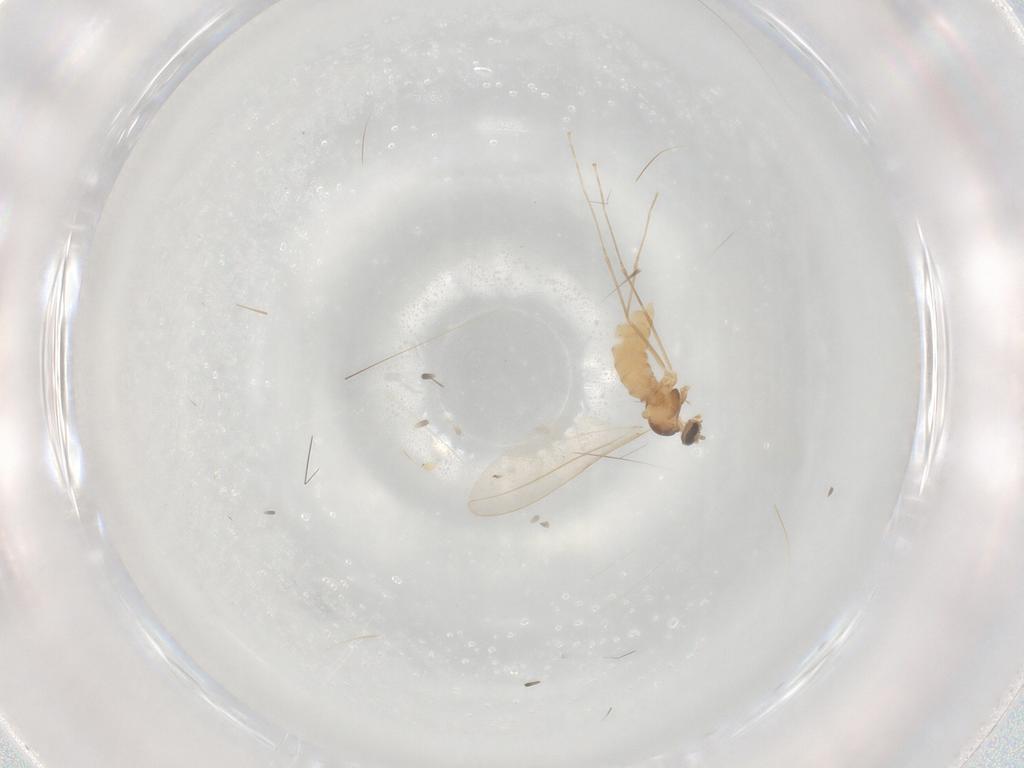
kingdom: Animalia
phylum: Arthropoda
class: Insecta
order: Diptera
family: Cecidomyiidae
